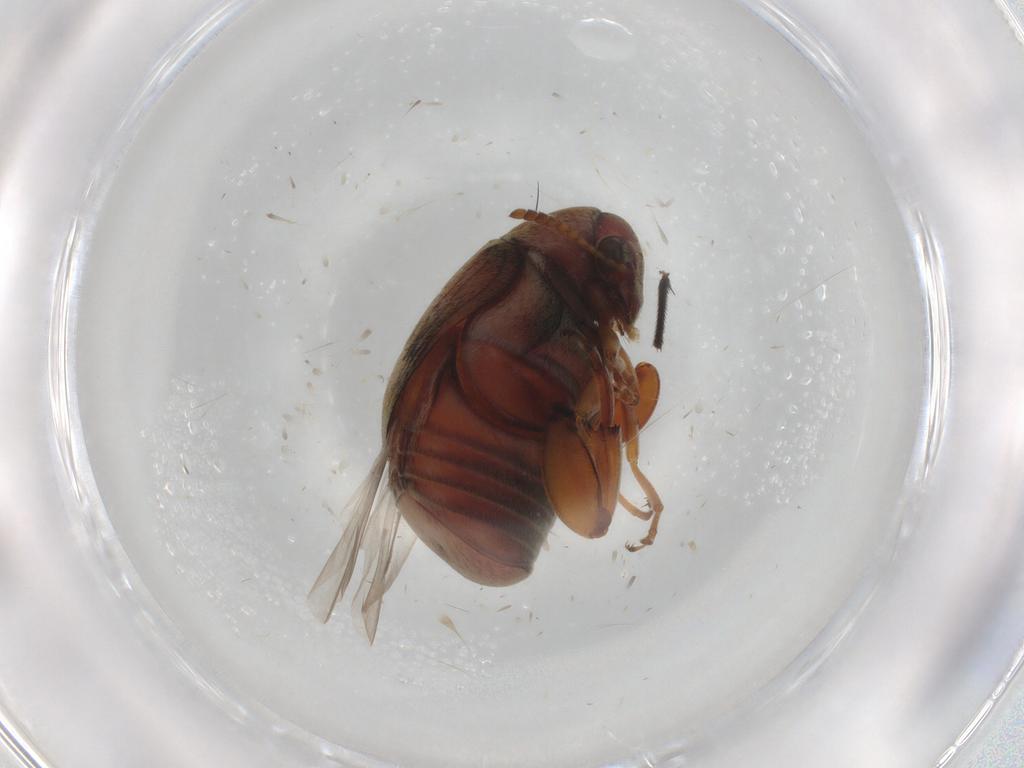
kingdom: Animalia
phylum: Arthropoda
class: Insecta
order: Coleoptera
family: Chrysomelidae
